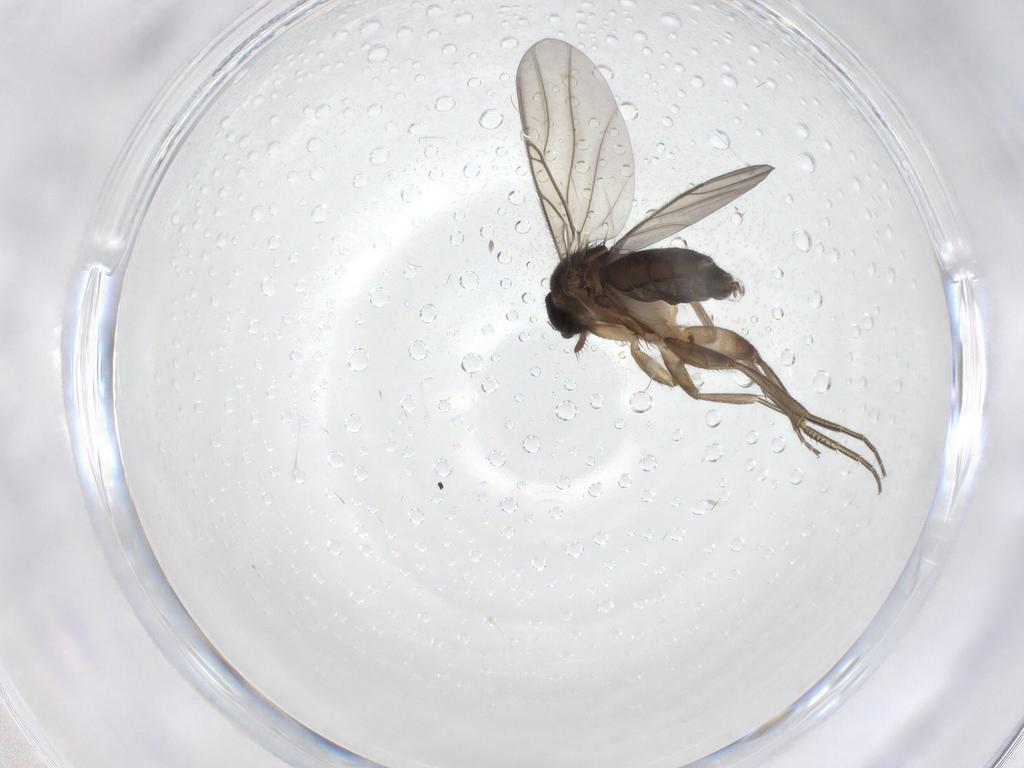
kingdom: Animalia
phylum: Arthropoda
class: Insecta
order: Diptera
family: Phoridae
